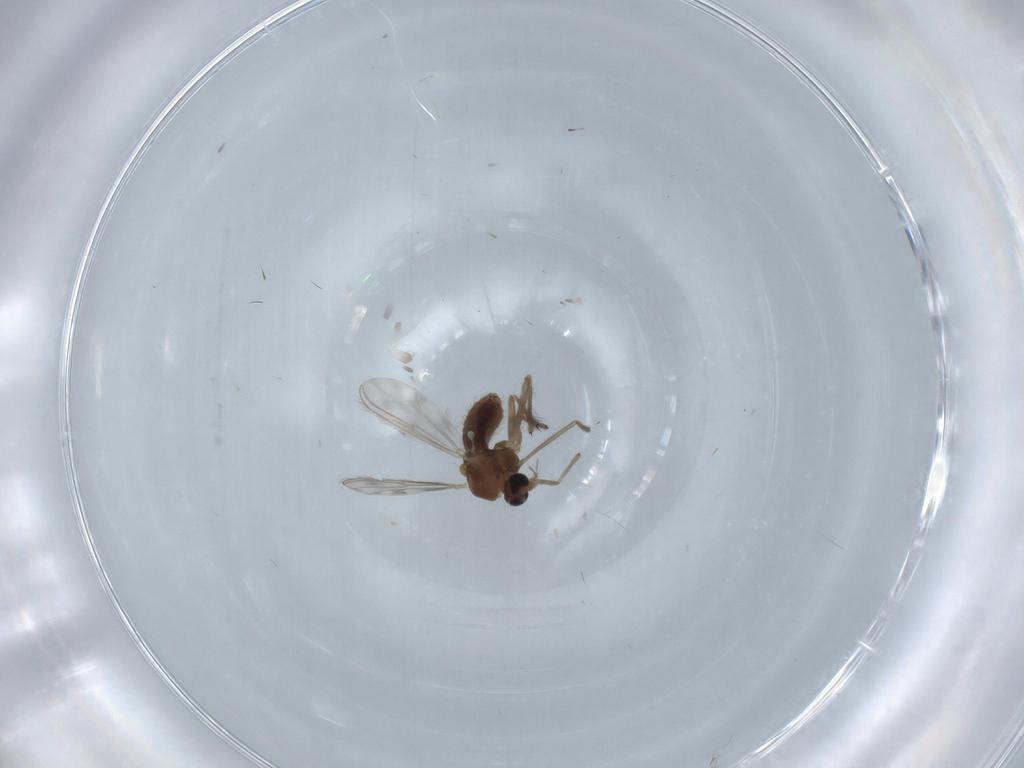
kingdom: Animalia
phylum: Arthropoda
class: Insecta
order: Diptera
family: Chironomidae
